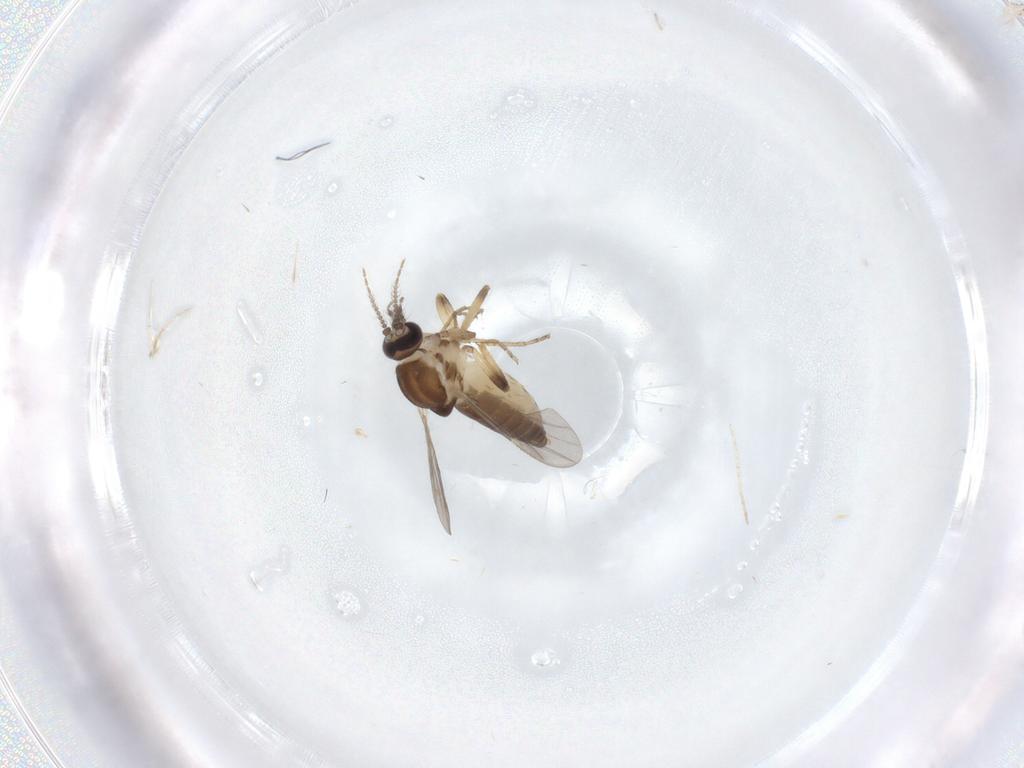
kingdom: Animalia
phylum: Arthropoda
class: Insecta
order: Diptera
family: Ceratopogonidae
